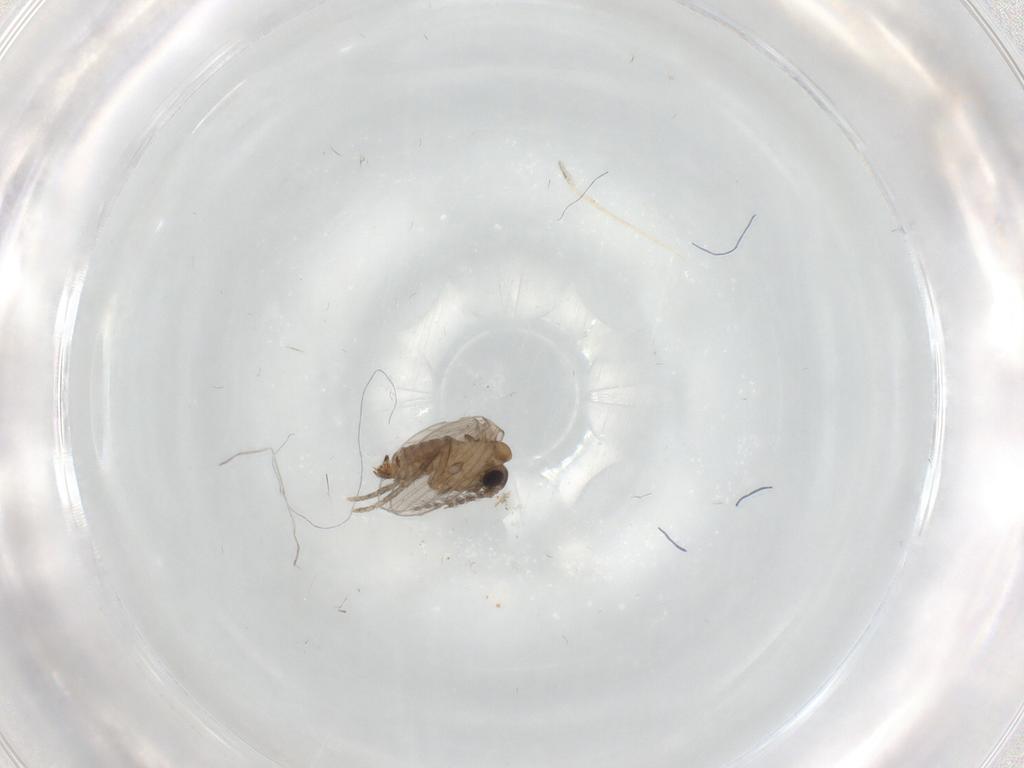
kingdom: Animalia
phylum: Arthropoda
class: Insecta
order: Diptera
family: Psychodidae
